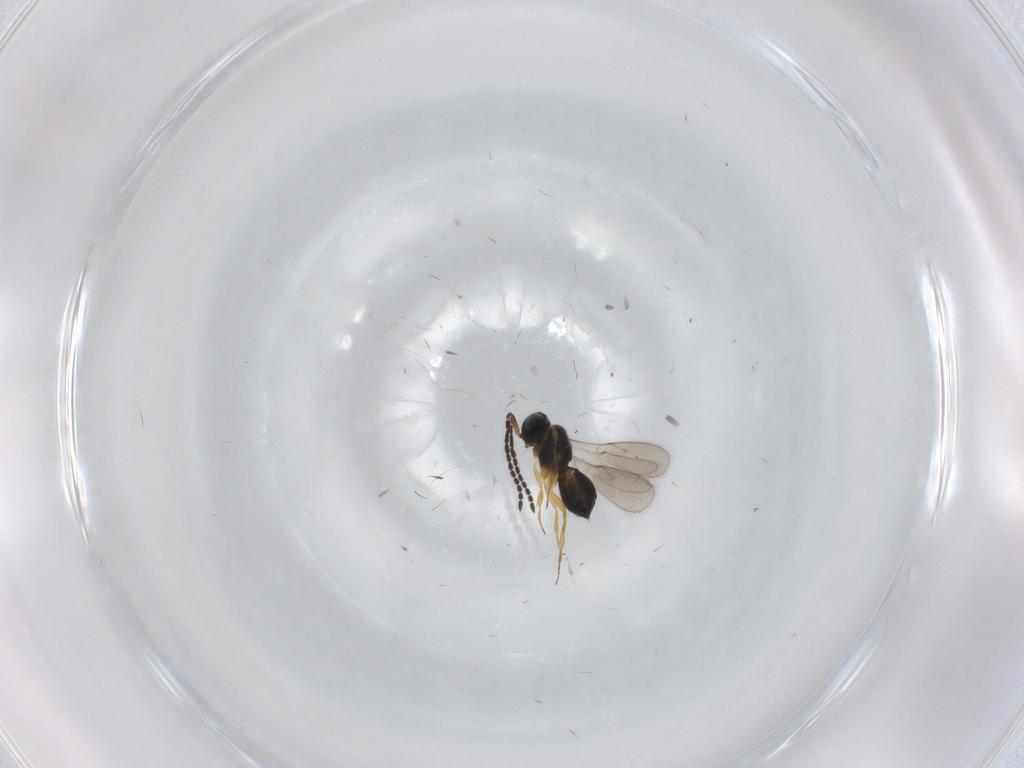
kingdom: Animalia
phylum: Arthropoda
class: Insecta
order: Hymenoptera
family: Scelionidae
